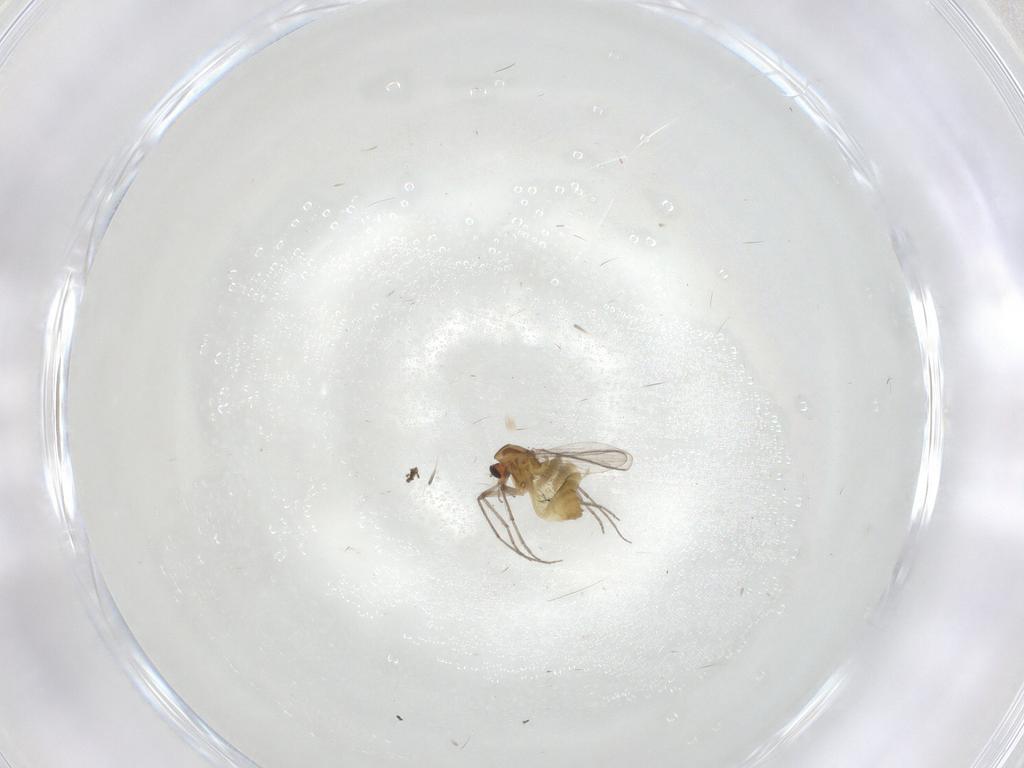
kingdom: Animalia
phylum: Arthropoda
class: Insecta
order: Diptera
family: Chironomidae
